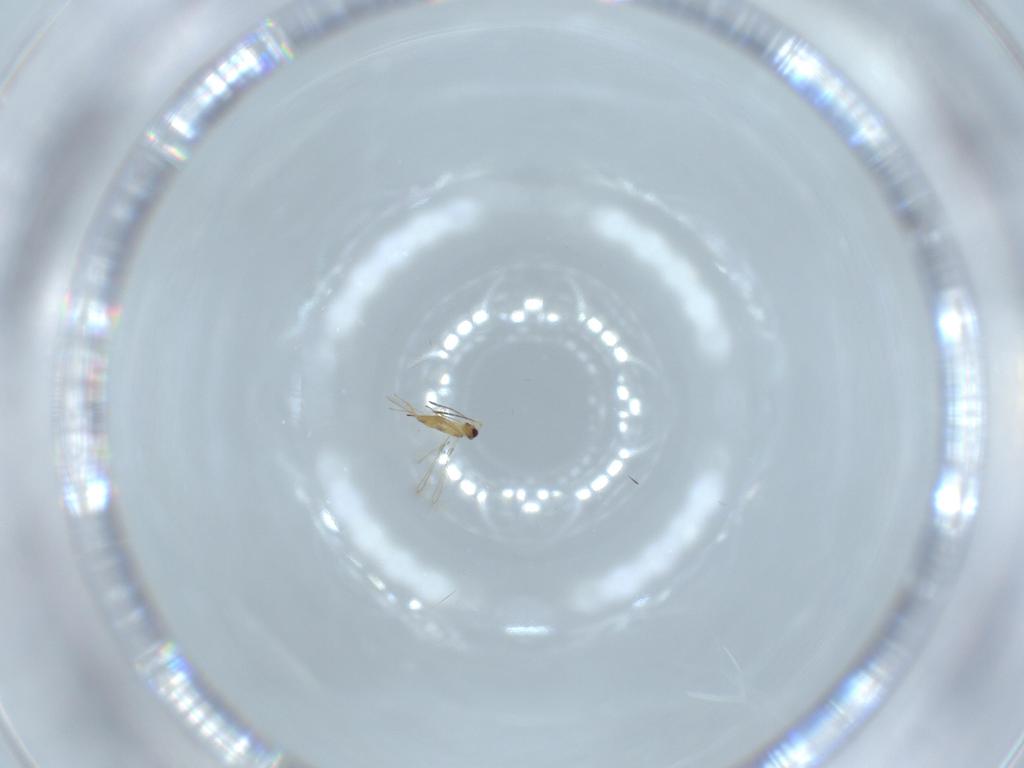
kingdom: Animalia
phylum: Arthropoda
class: Insecta
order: Hymenoptera
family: Mymaridae
